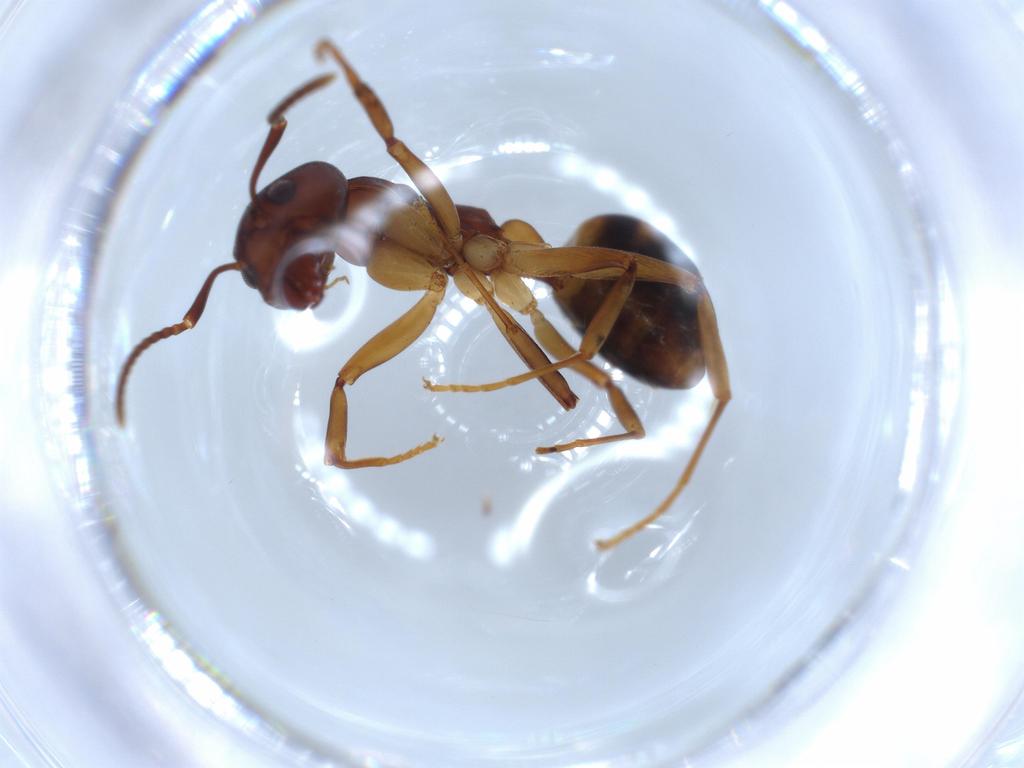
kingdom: Animalia
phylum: Arthropoda
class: Insecta
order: Hymenoptera
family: Formicidae
